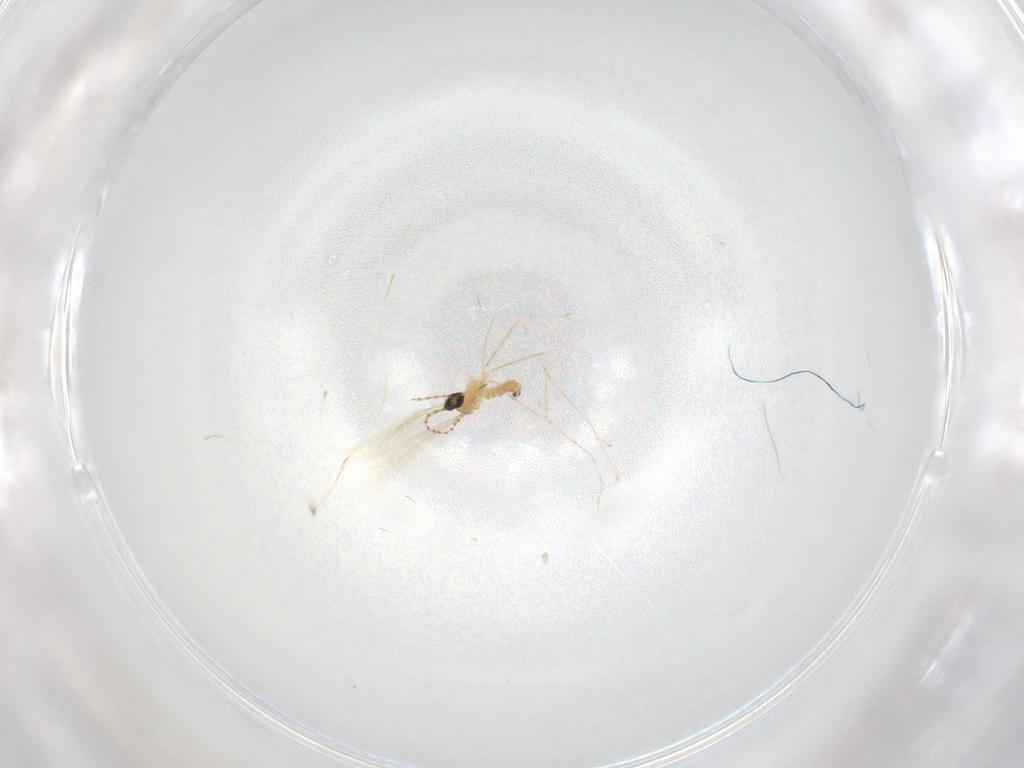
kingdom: Animalia
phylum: Arthropoda
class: Insecta
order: Diptera
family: Cecidomyiidae
